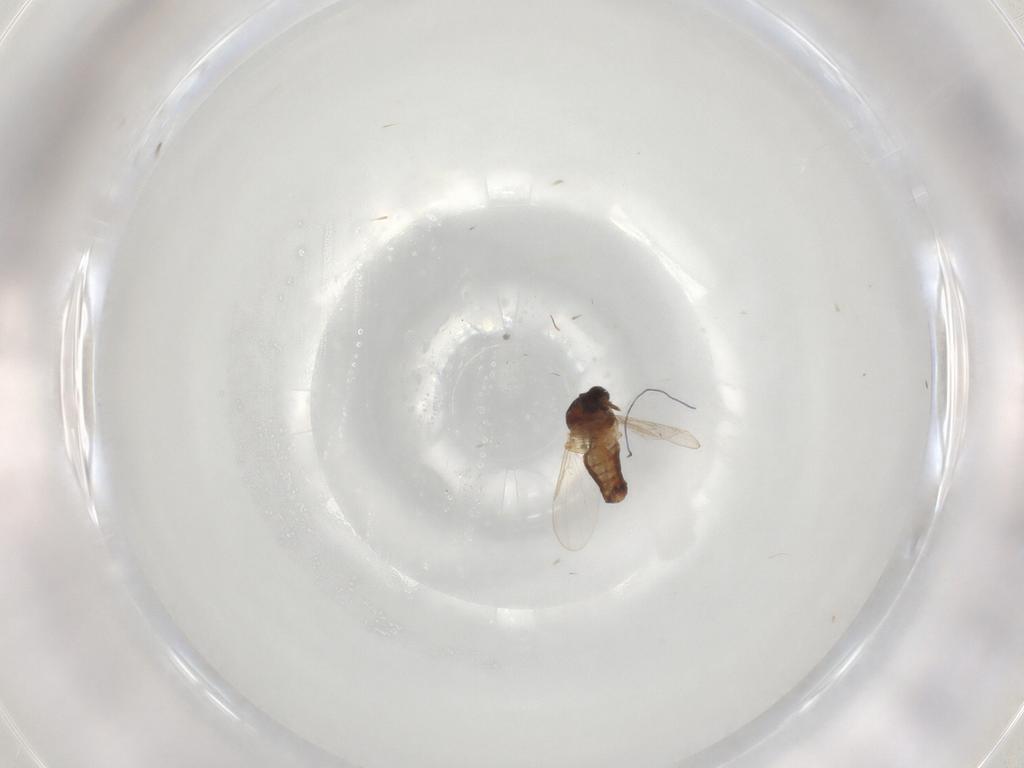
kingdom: Animalia
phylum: Arthropoda
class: Insecta
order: Diptera
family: Ceratopogonidae
